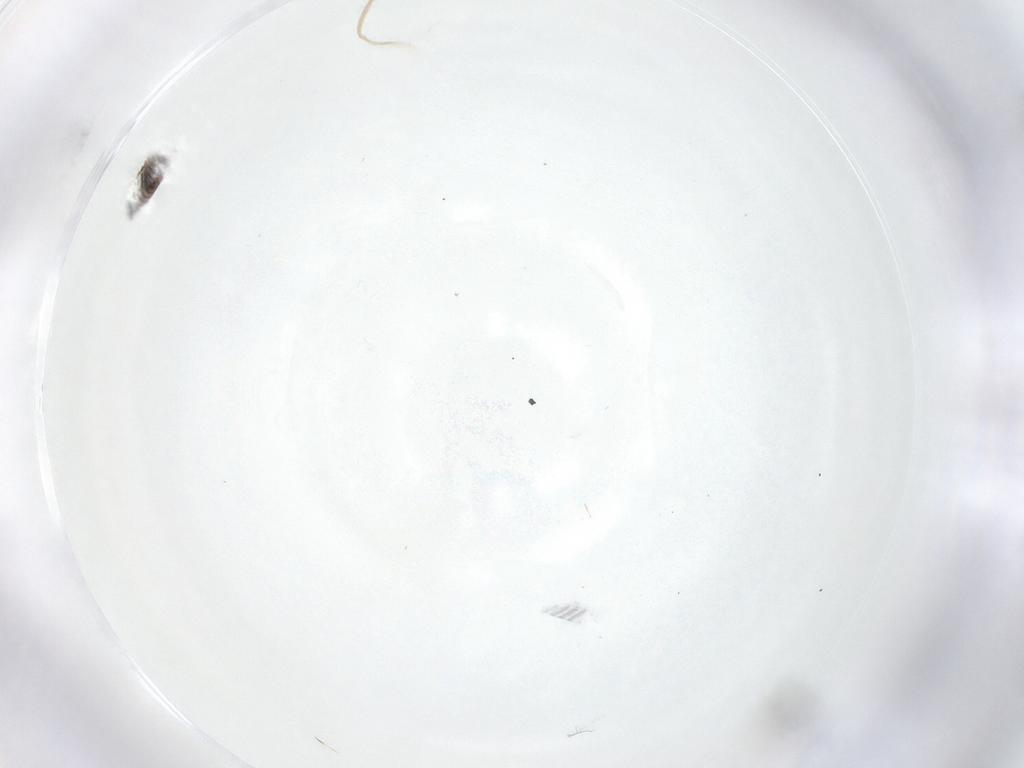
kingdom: Animalia
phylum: Arthropoda
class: Insecta
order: Diptera
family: Cecidomyiidae
